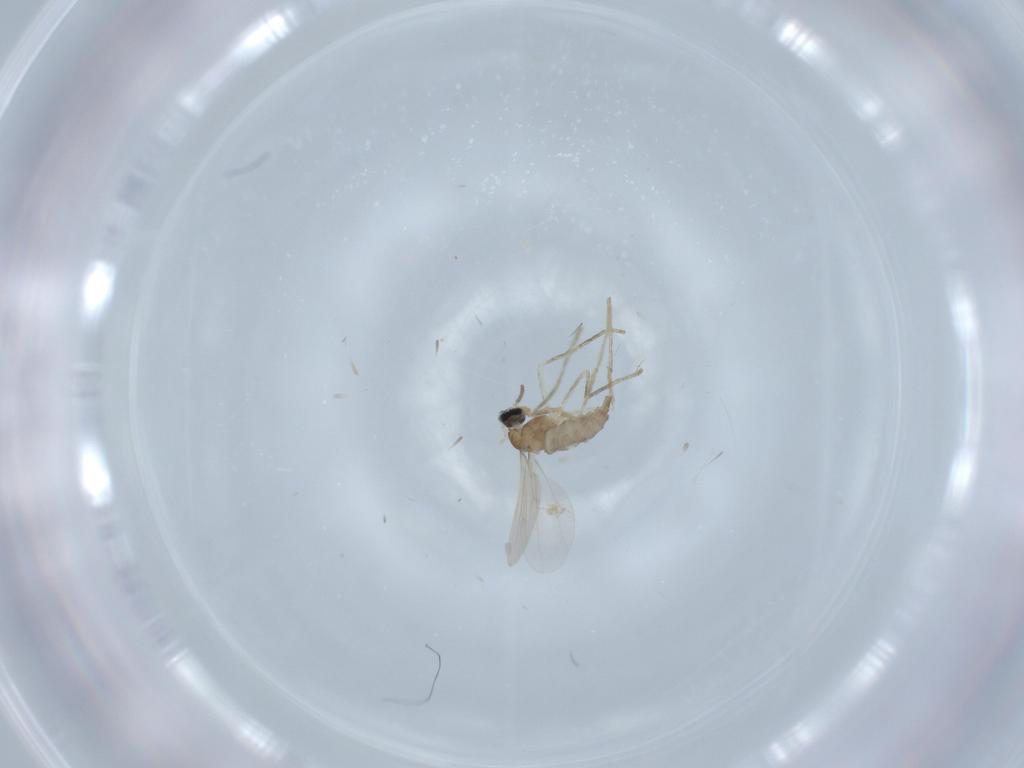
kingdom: Animalia
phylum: Arthropoda
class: Insecta
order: Diptera
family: Cecidomyiidae
